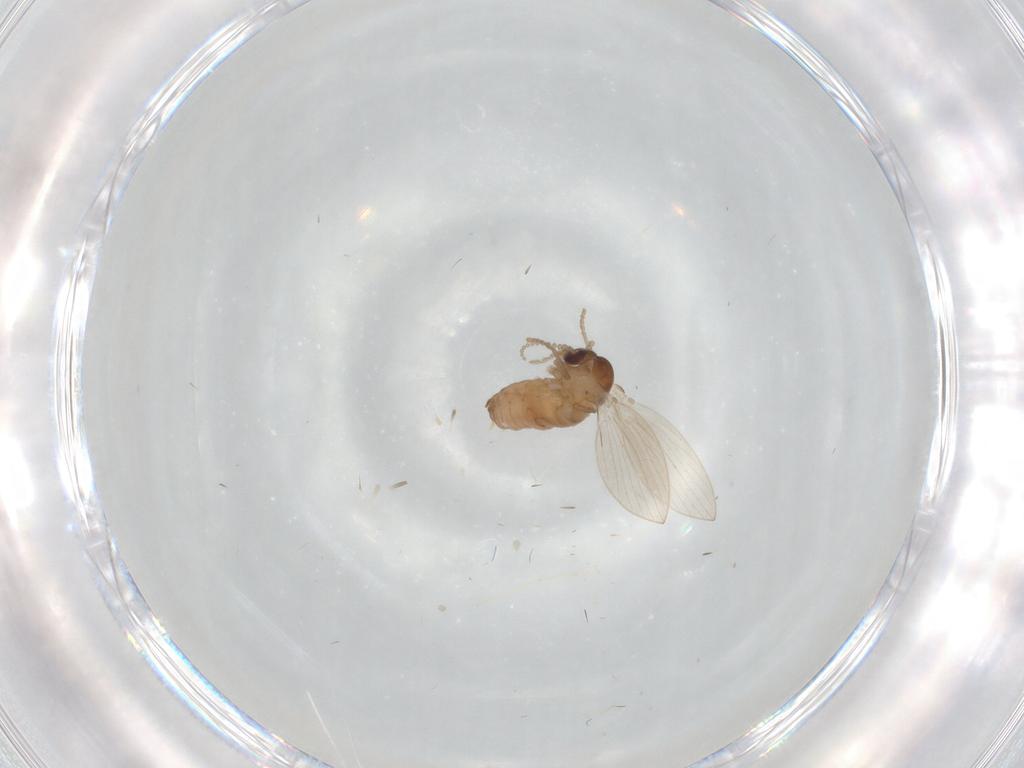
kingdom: Animalia
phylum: Arthropoda
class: Insecta
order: Diptera
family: Psychodidae
